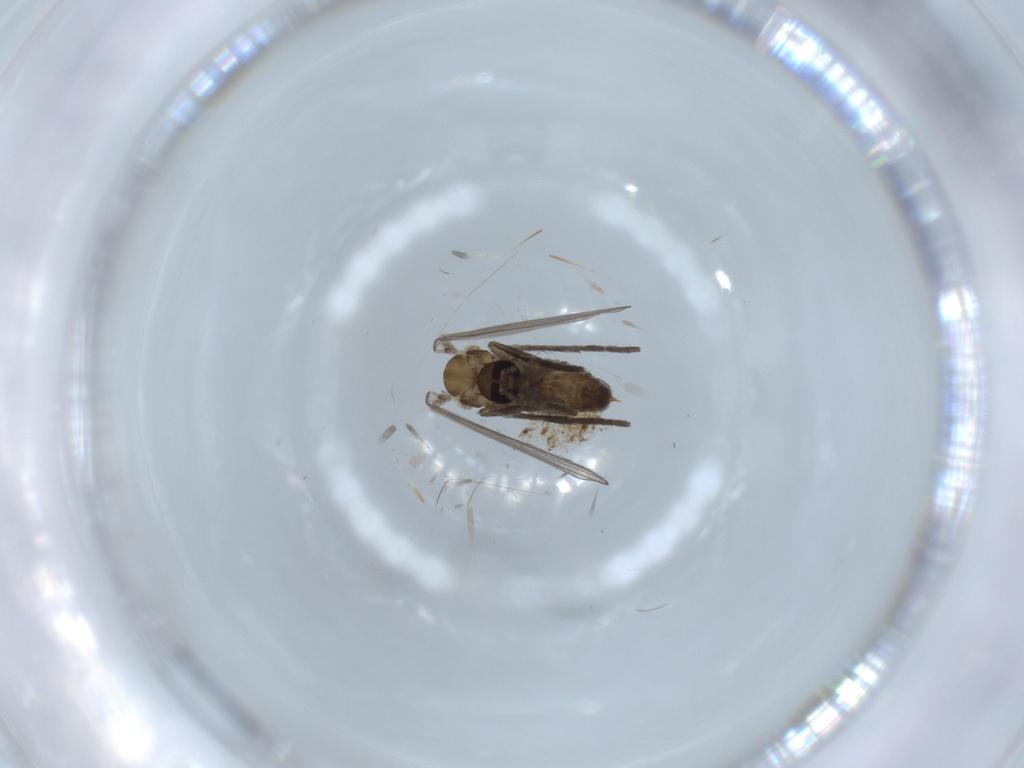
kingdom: Animalia
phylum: Arthropoda
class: Insecta
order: Diptera
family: Psychodidae
